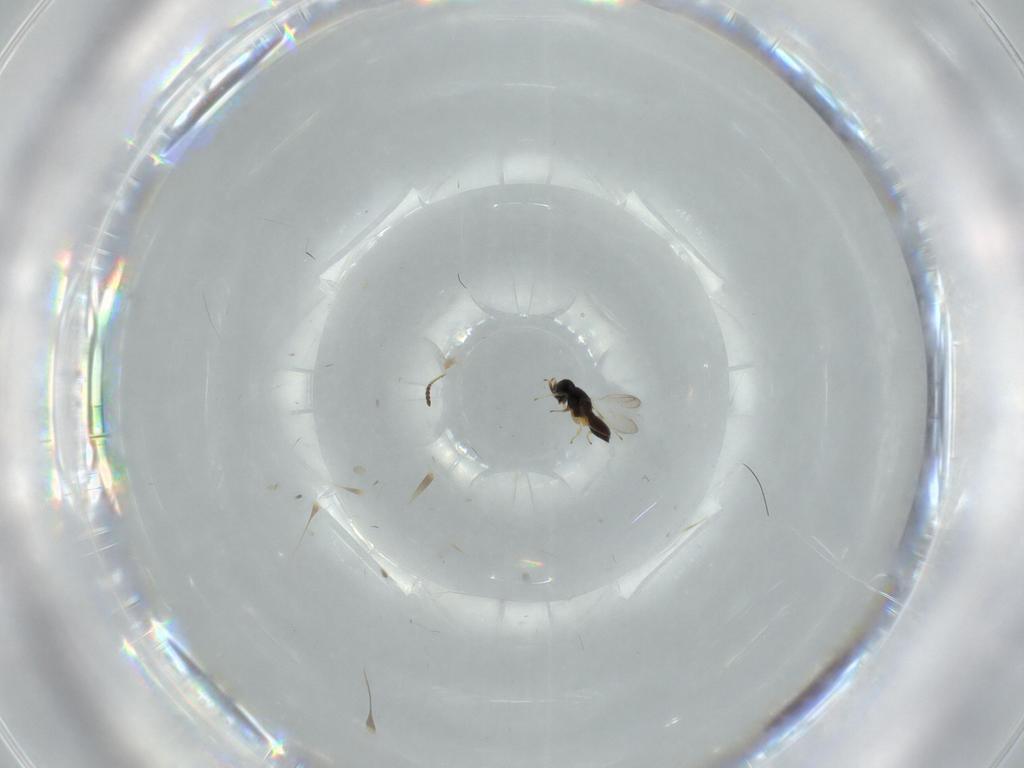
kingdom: Animalia
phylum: Arthropoda
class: Insecta
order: Hymenoptera
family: Scelionidae
